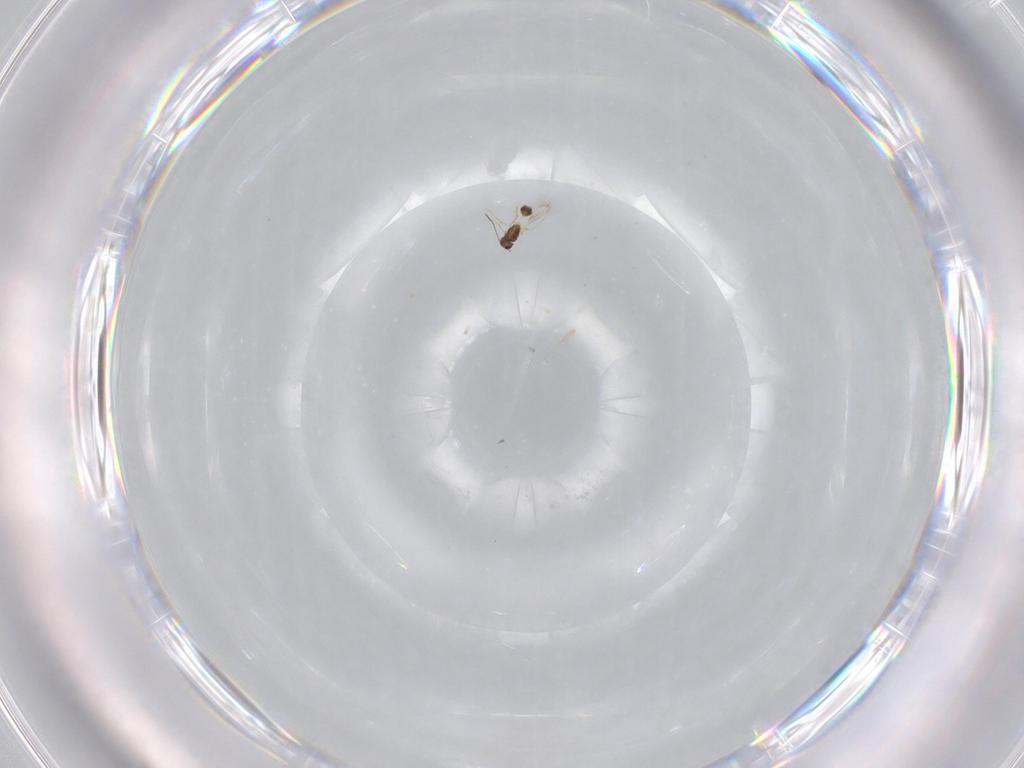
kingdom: Animalia
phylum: Arthropoda
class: Insecta
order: Hymenoptera
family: Mymarommatidae
